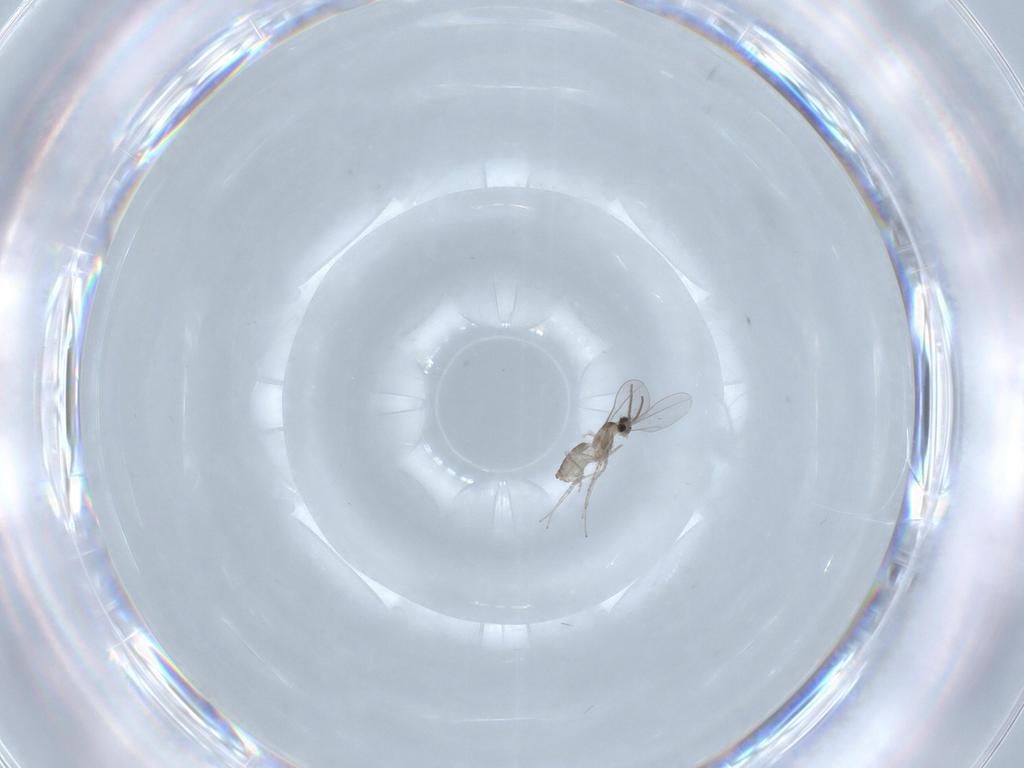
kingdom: Animalia
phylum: Arthropoda
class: Insecta
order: Diptera
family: Cecidomyiidae
